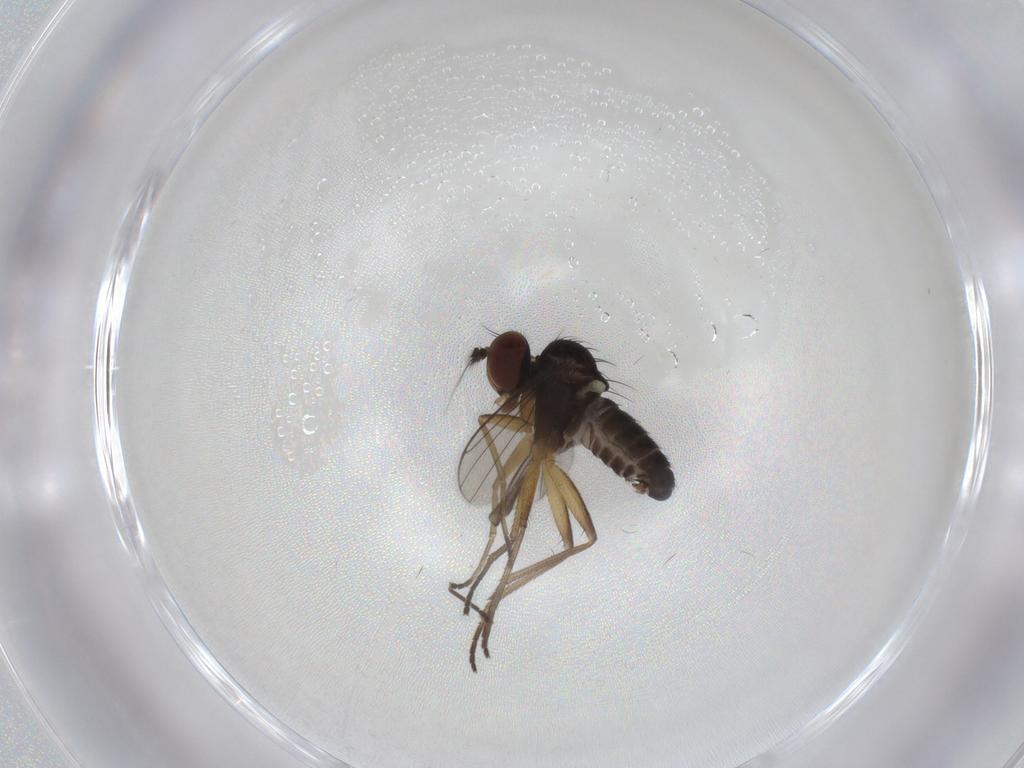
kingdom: Animalia
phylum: Arthropoda
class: Insecta
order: Diptera
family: Dolichopodidae
